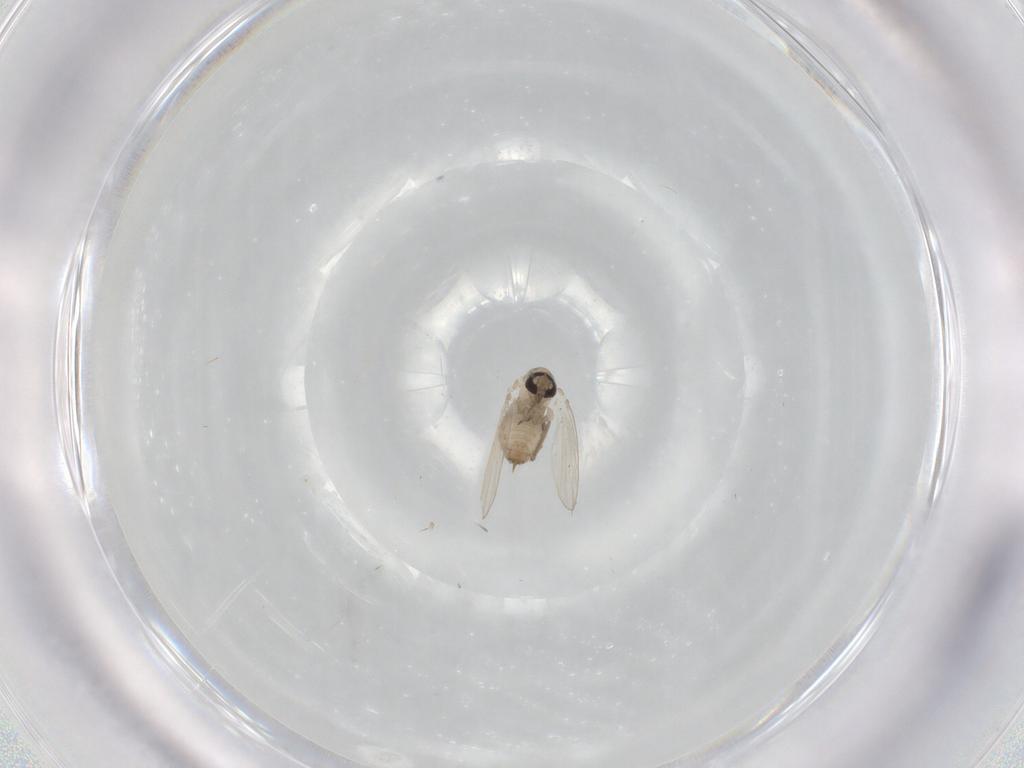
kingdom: Animalia
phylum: Arthropoda
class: Insecta
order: Diptera
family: Psychodidae
